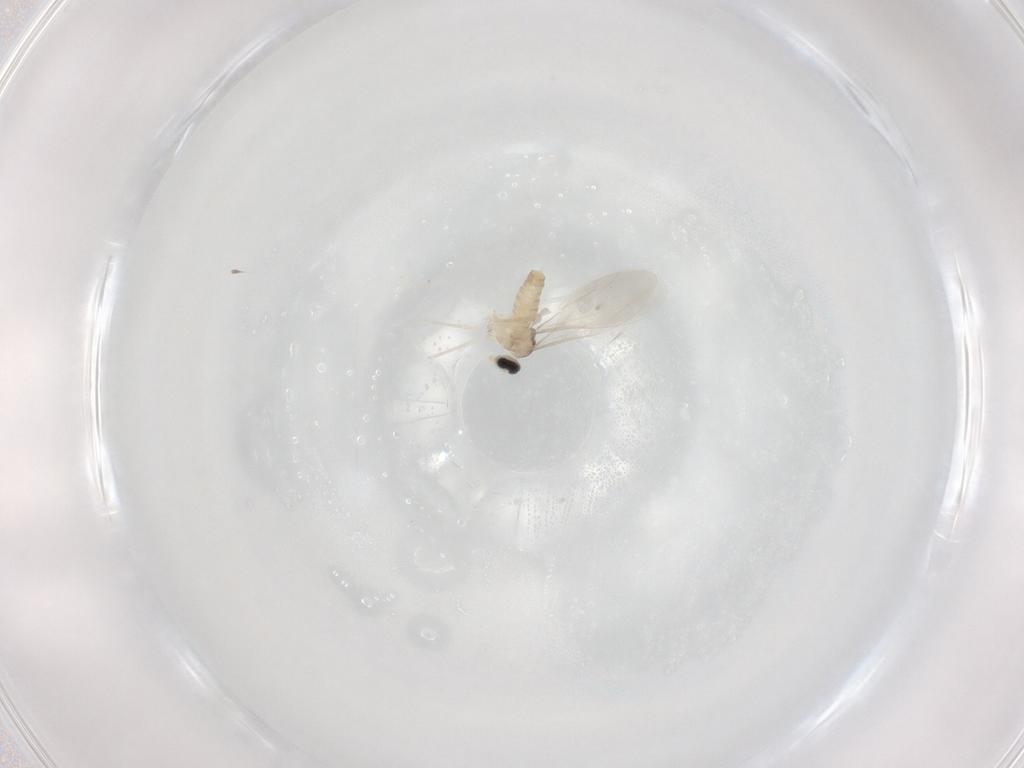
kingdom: Animalia
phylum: Arthropoda
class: Insecta
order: Diptera
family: Cecidomyiidae
